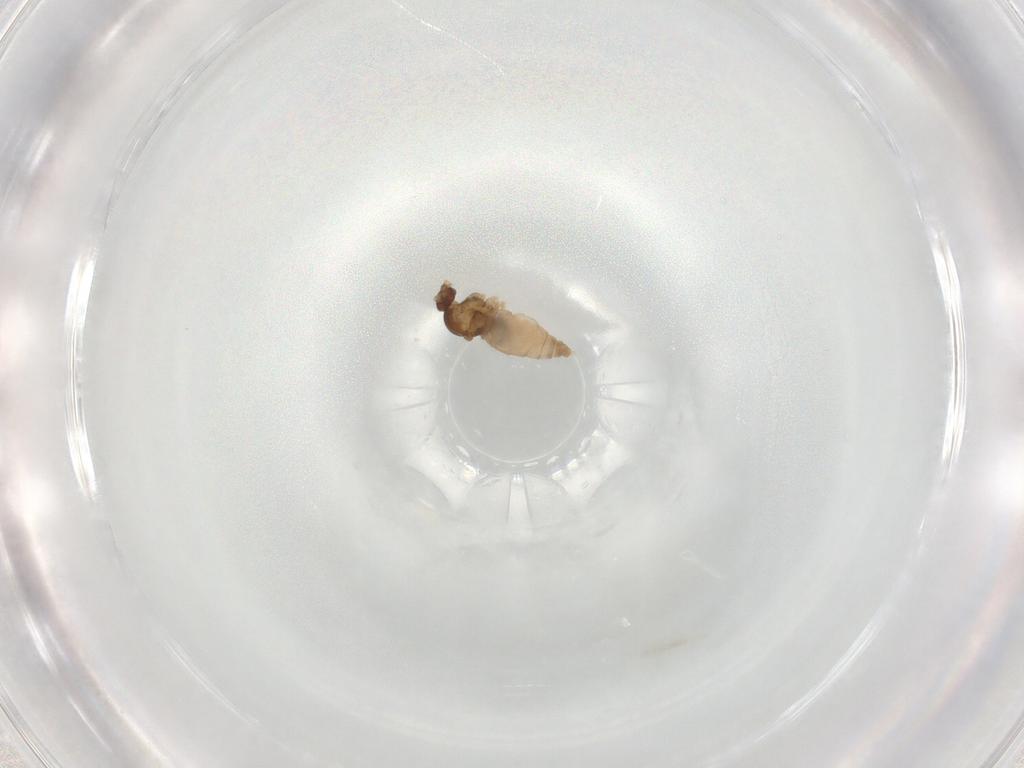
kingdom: Animalia
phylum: Arthropoda
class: Insecta
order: Diptera
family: Cecidomyiidae
